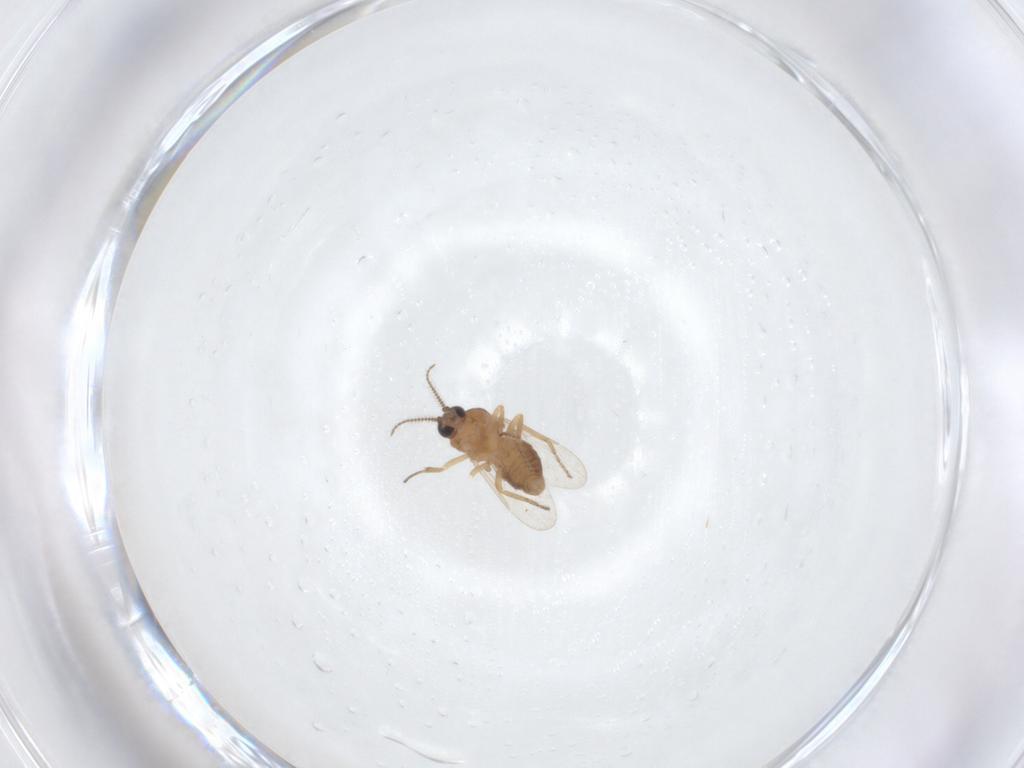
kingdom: Animalia
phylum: Arthropoda
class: Insecta
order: Diptera
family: Ceratopogonidae
